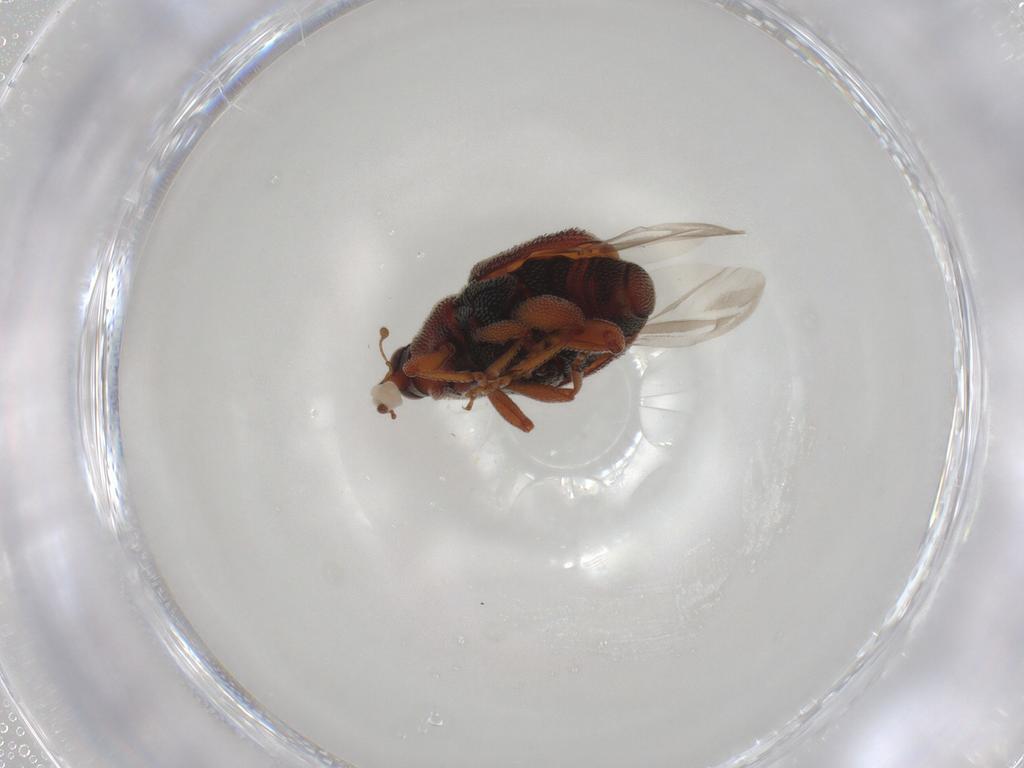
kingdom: Animalia
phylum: Arthropoda
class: Insecta
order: Coleoptera
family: Curculionidae
